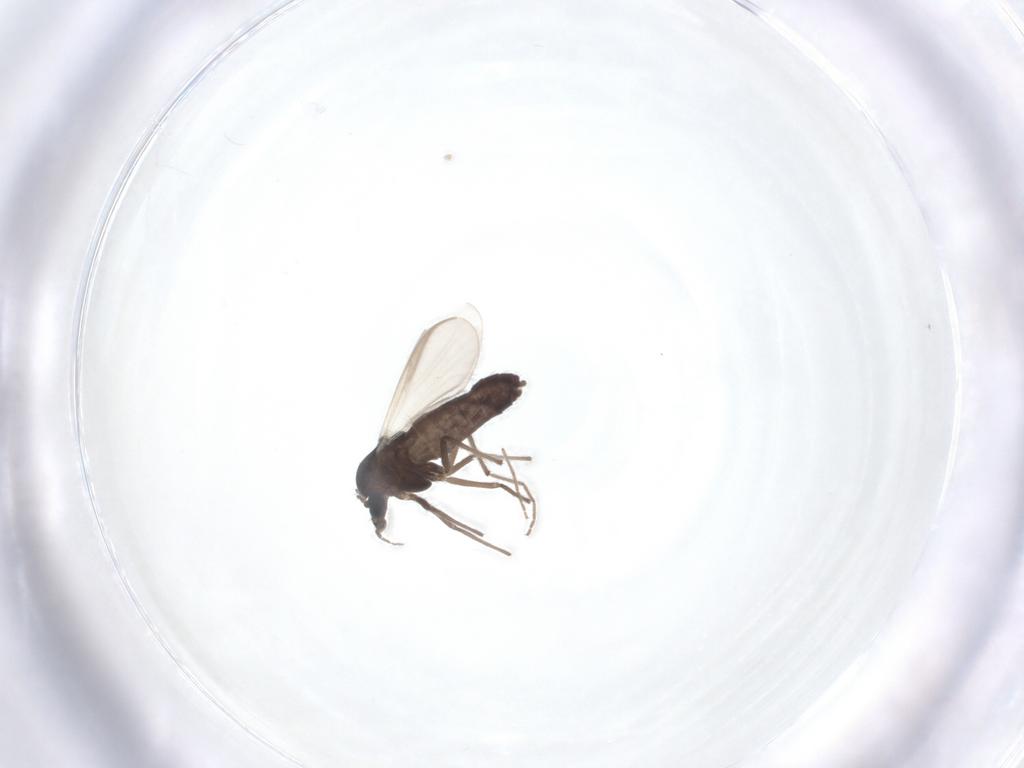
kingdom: Animalia
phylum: Arthropoda
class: Insecta
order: Diptera
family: Chironomidae
